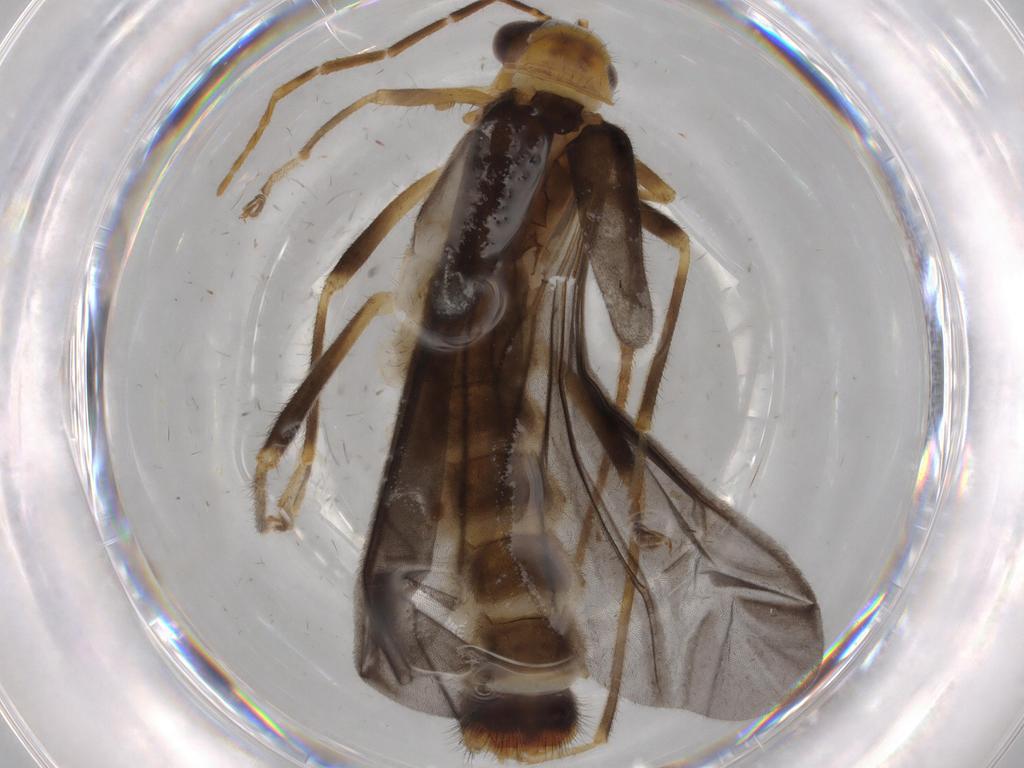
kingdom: Animalia
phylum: Arthropoda
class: Insecta
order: Coleoptera
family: Cantharidae
